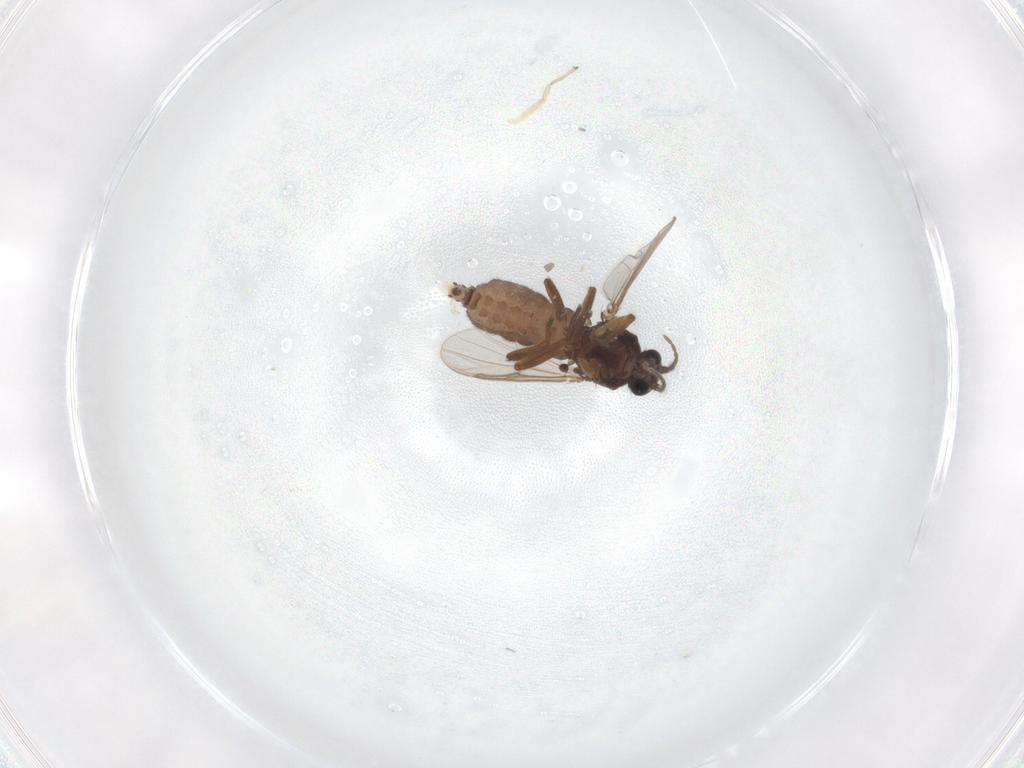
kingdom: Animalia
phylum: Arthropoda
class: Insecta
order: Diptera
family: Ceratopogonidae
